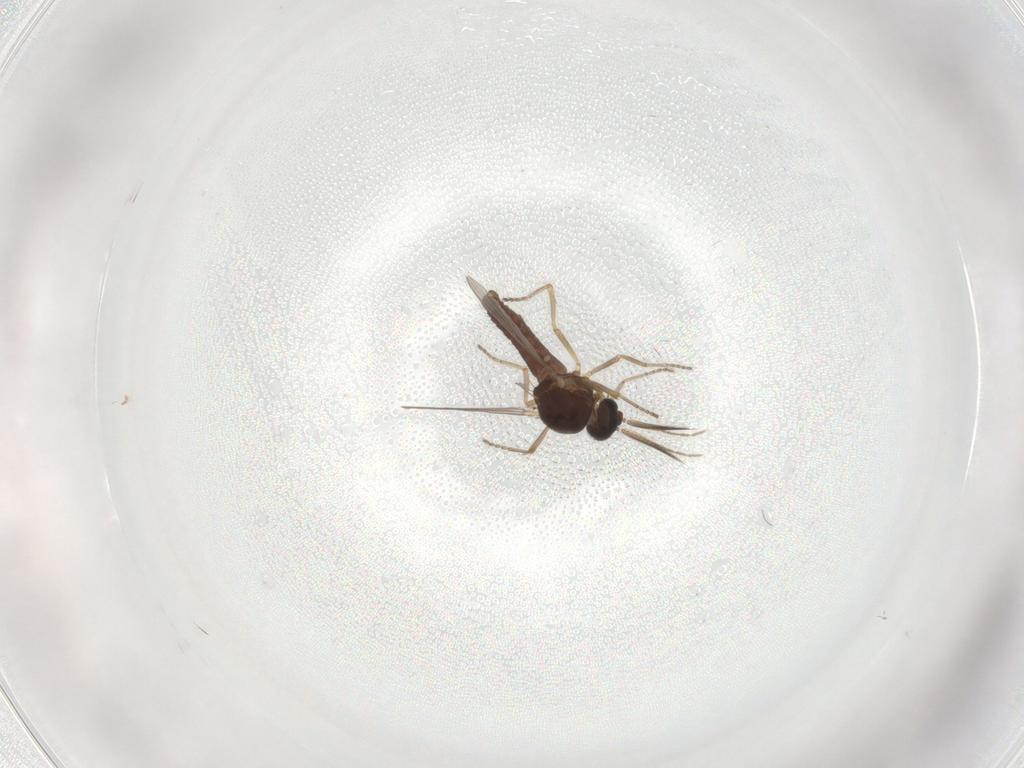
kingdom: Animalia
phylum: Arthropoda
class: Insecta
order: Diptera
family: Ceratopogonidae
